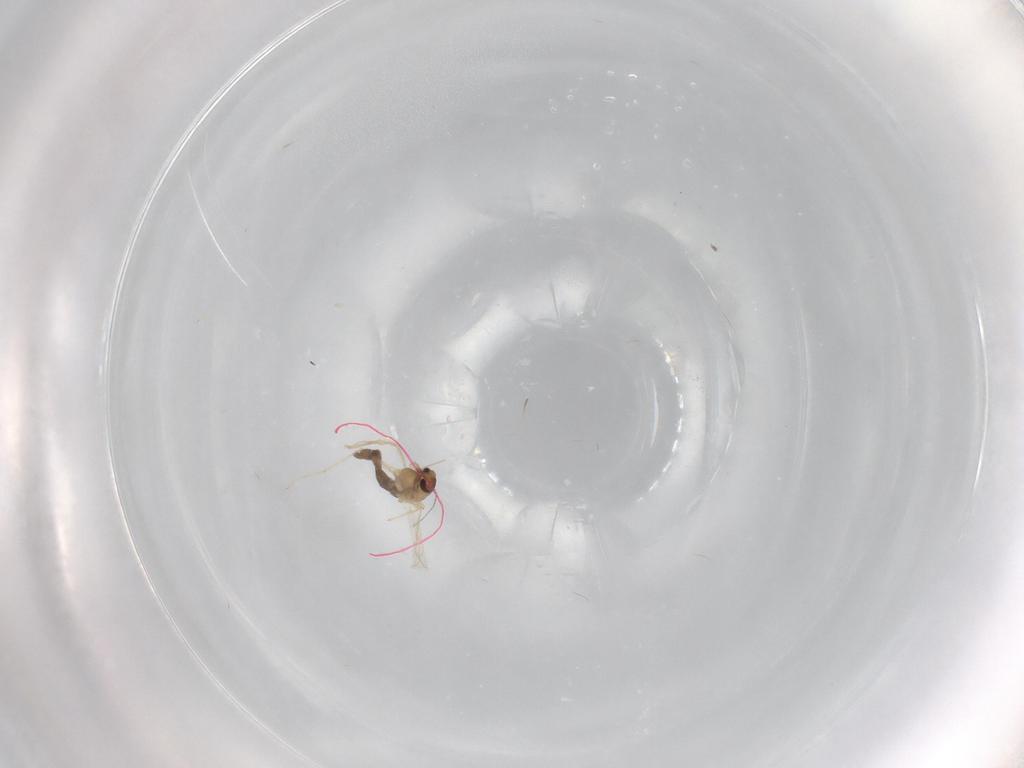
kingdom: Animalia
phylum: Arthropoda
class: Insecta
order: Diptera
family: Chironomidae
